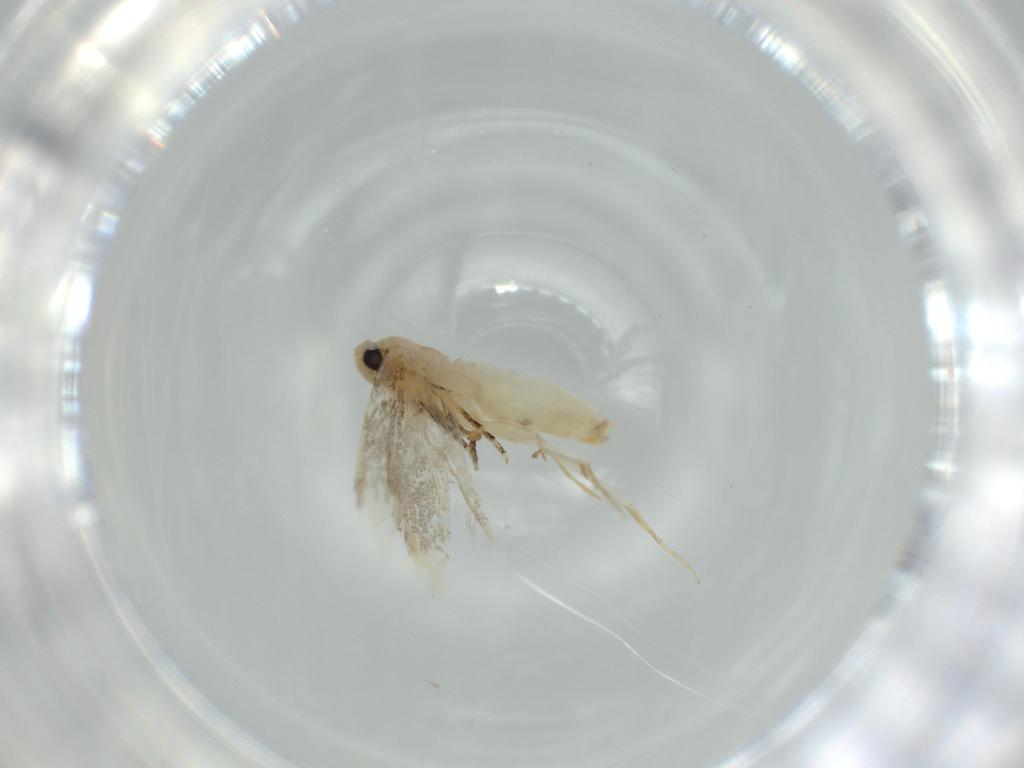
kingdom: Animalia
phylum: Arthropoda
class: Insecta
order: Lepidoptera
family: Bucculatricidae
